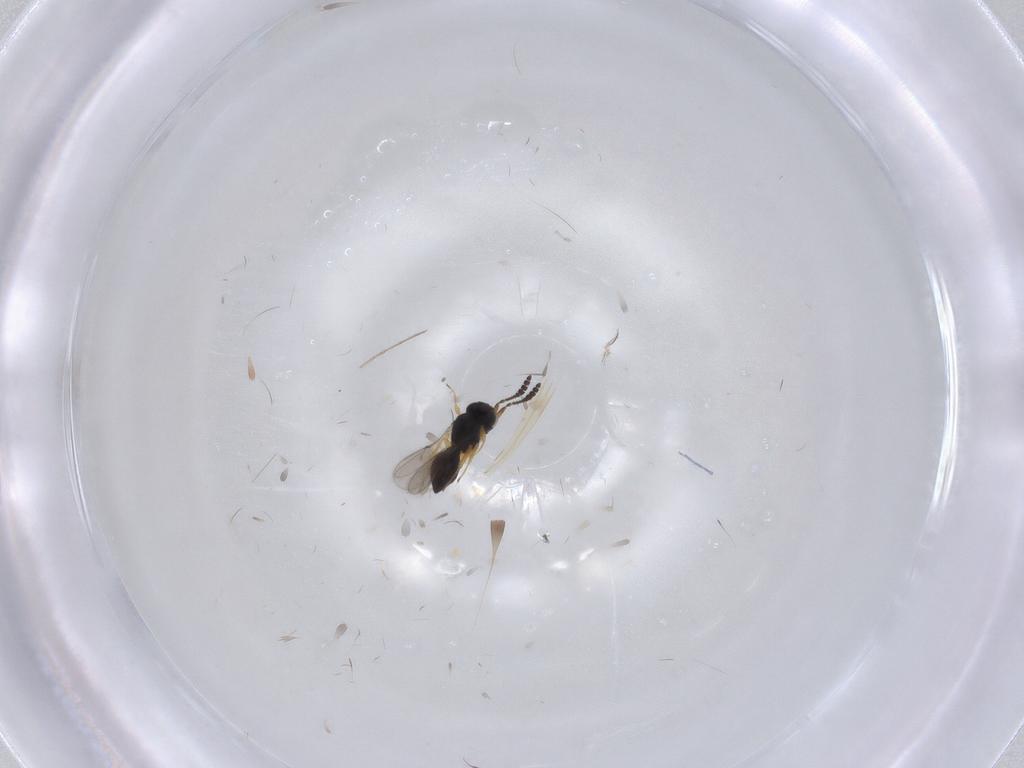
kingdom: Animalia
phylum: Arthropoda
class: Insecta
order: Hymenoptera
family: Scelionidae
